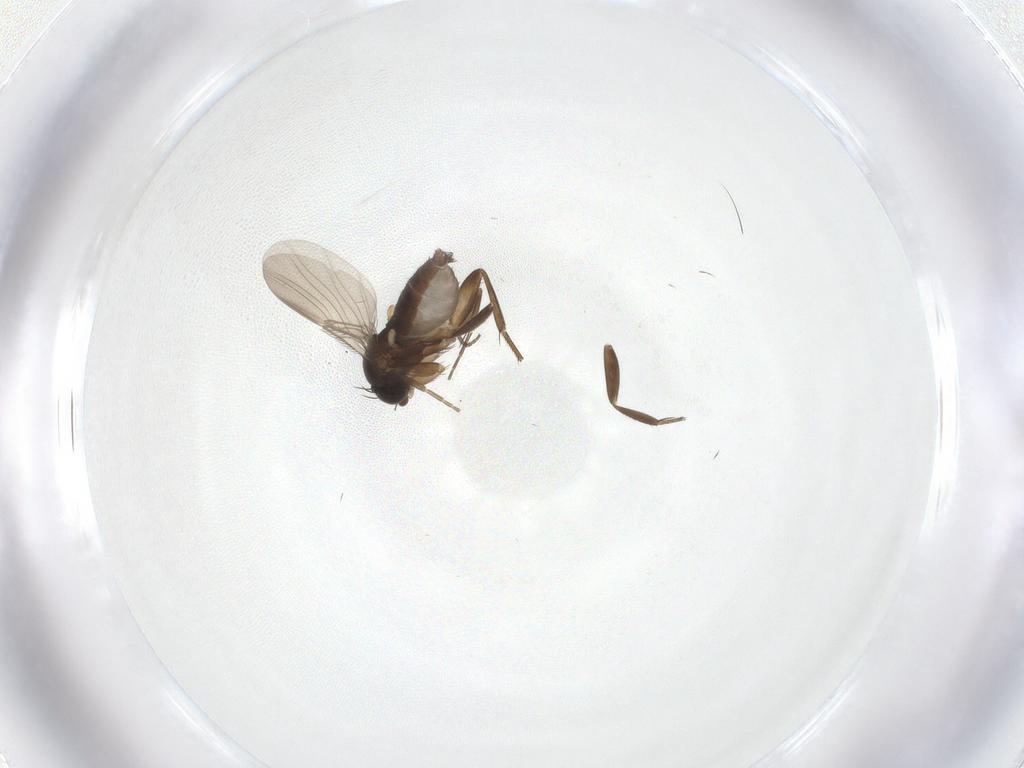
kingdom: Animalia
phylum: Arthropoda
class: Insecta
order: Diptera
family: Phoridae
